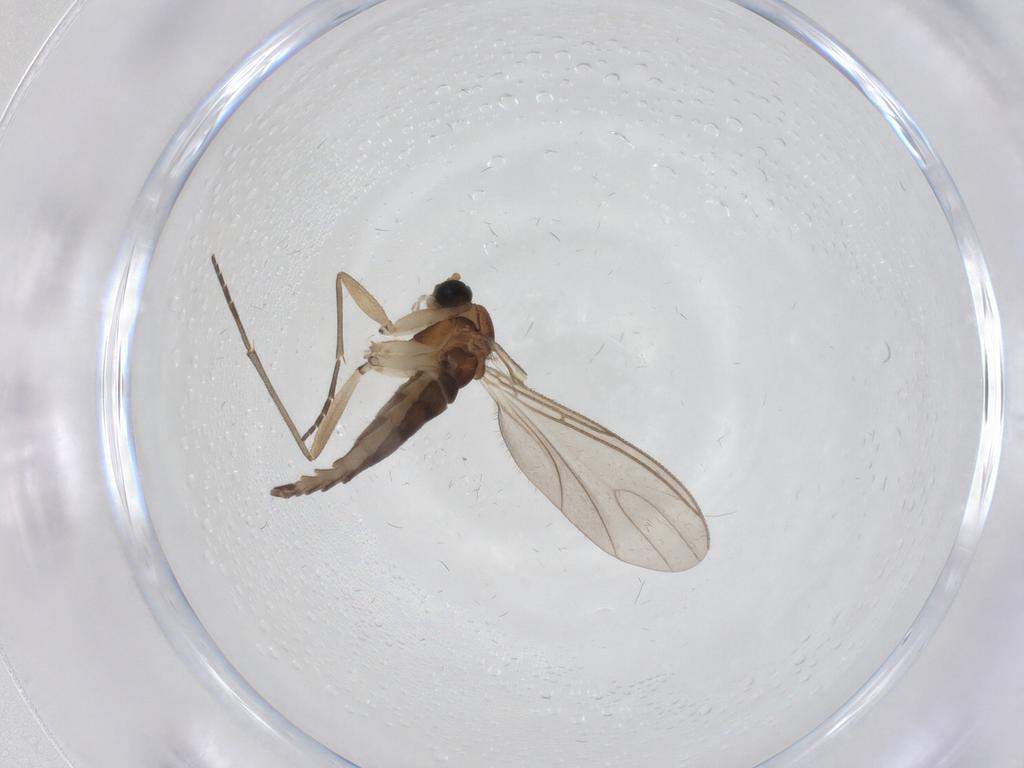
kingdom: Animalia
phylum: Arthropoda
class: Insecta
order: Diptera
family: Sciaridae
